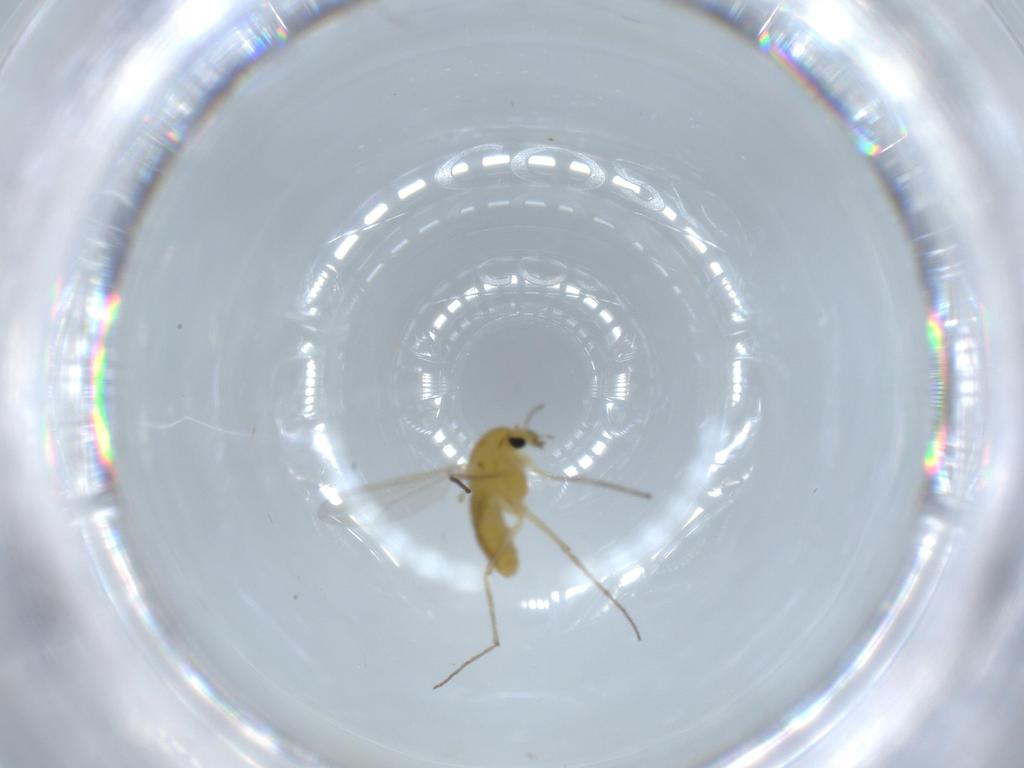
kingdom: Animalia
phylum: Arthropoda
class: Insecta
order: Diptera
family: Chironomidae
